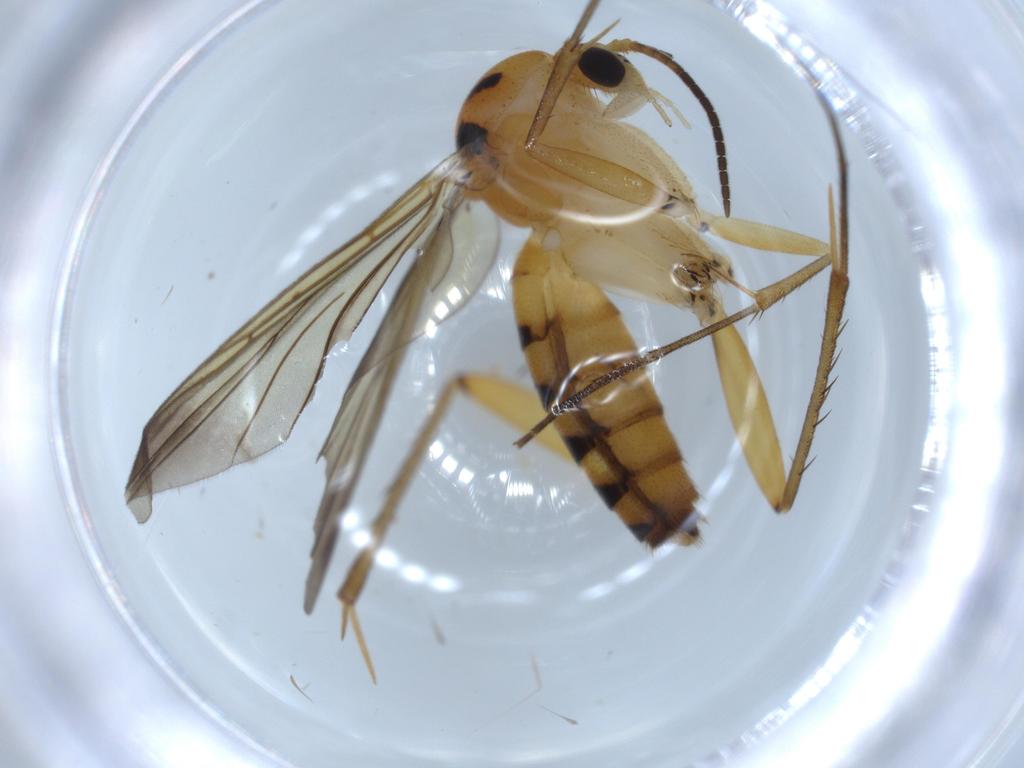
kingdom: Animalia
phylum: Arthropoda
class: Insecta
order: Diptera
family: Mycetophilidae
